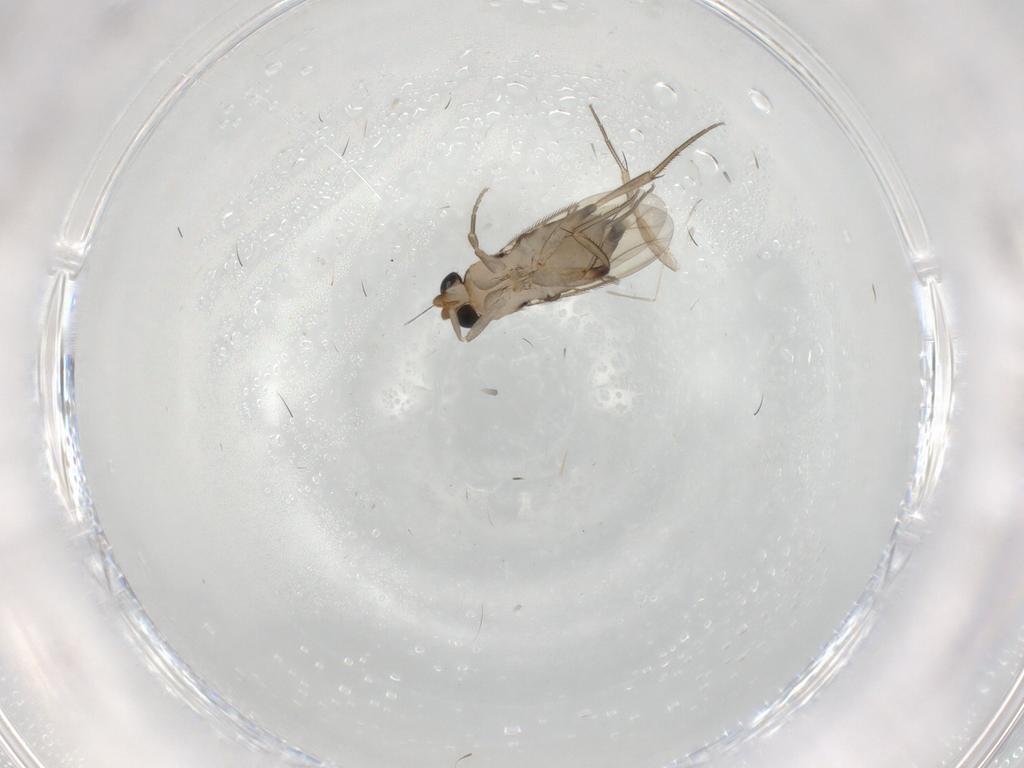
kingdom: Animalia
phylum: Arthropoda
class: Insecta
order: Diptera
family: Phoridae
